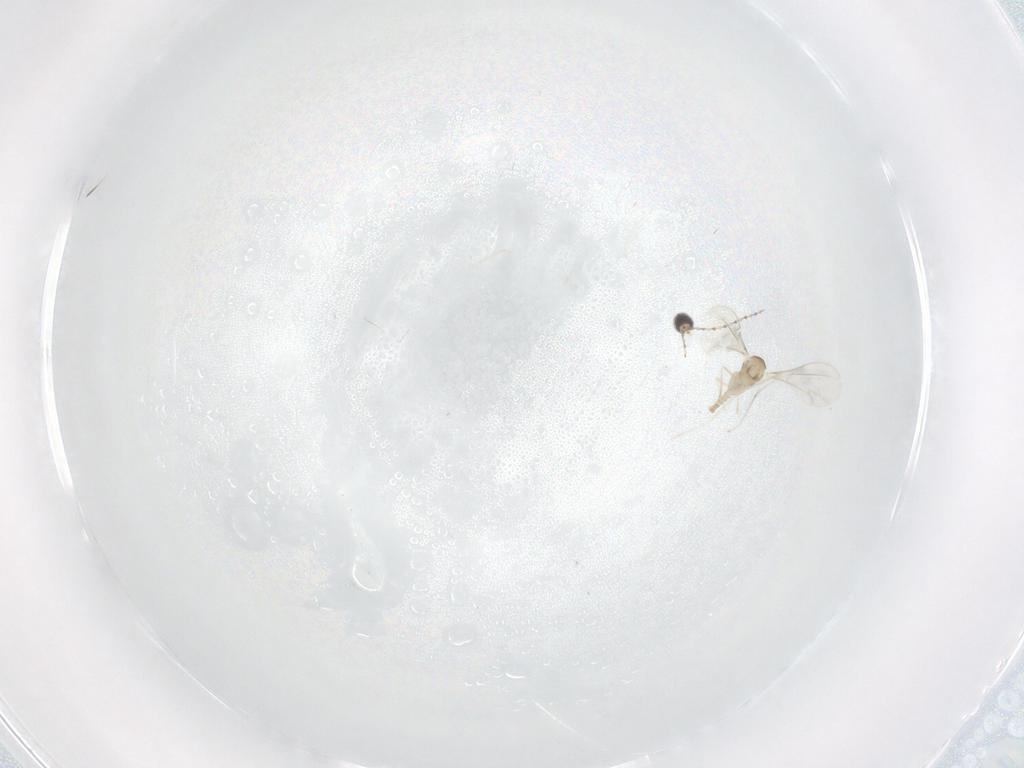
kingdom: Animalia
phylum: Arthropoda
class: Insecta
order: Diptera
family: Cecidomyiidae
